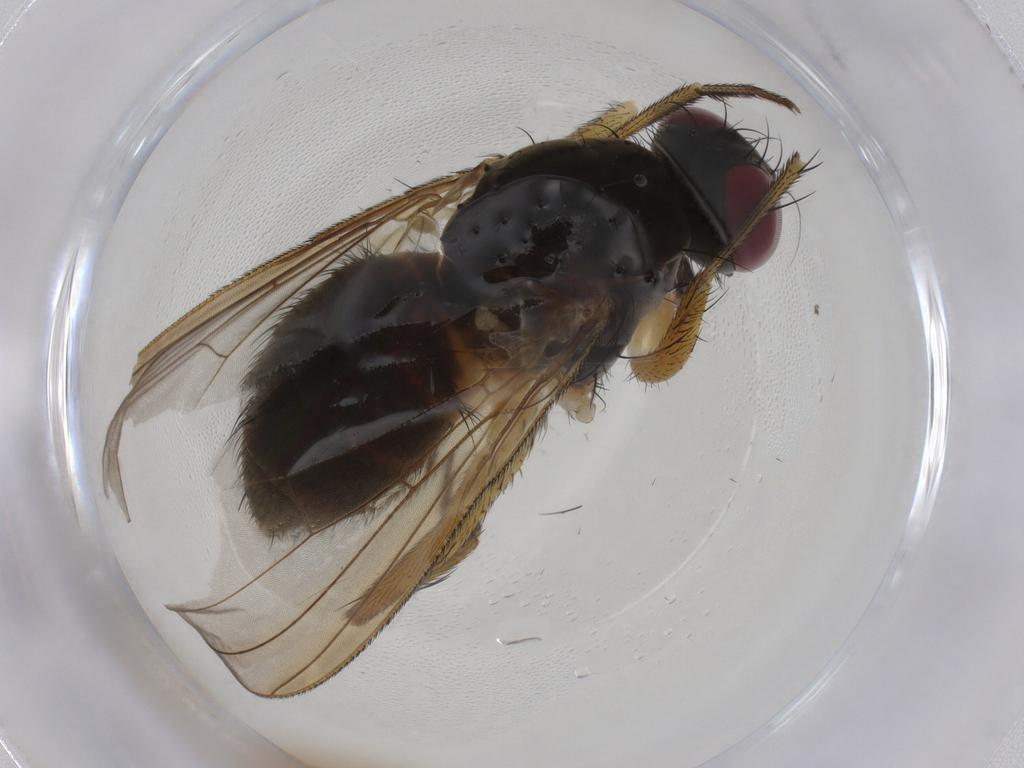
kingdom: Animalia
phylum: Arthropoda
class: Insecta
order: Diptera
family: Muscidae
